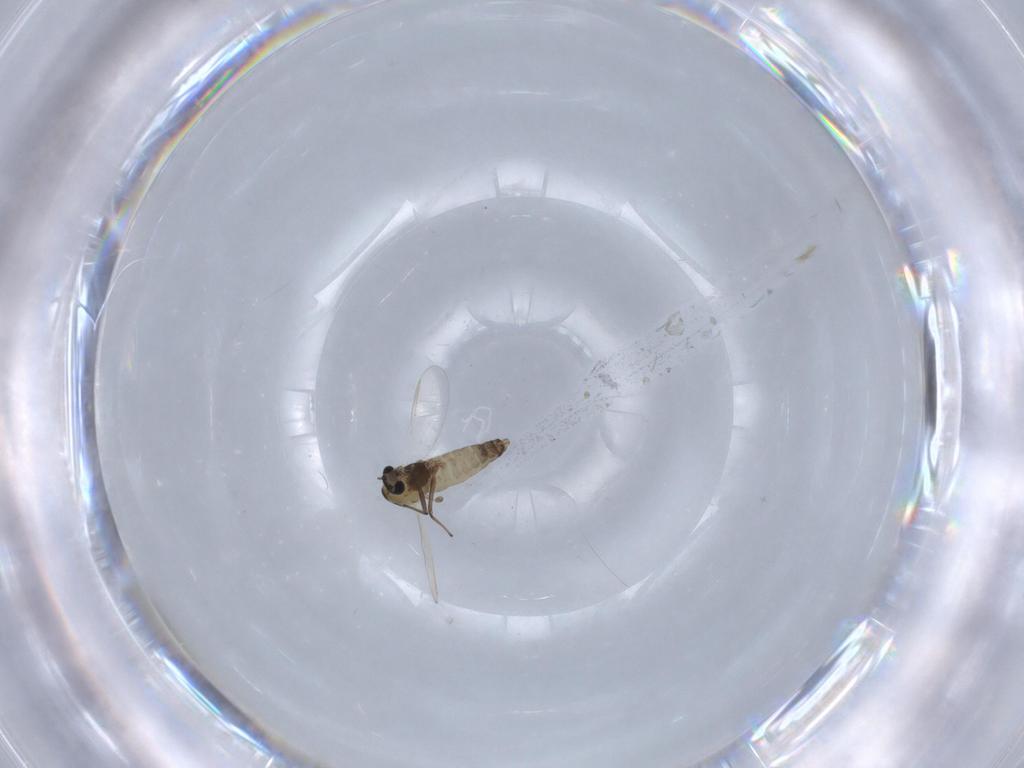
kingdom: Animalia
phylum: Arthropoda
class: Insecta
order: Diptera
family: Chironomidae
